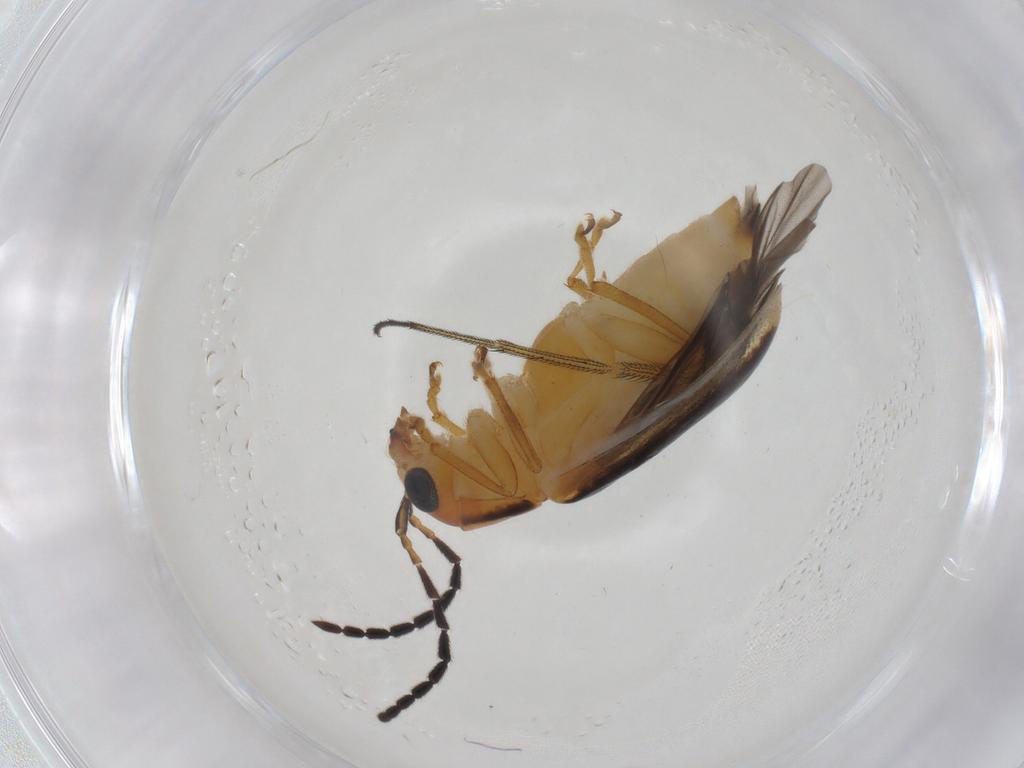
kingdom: Animalia
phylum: Arthropoda
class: Insecta
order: Coleoptera
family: Chrysomelidae
